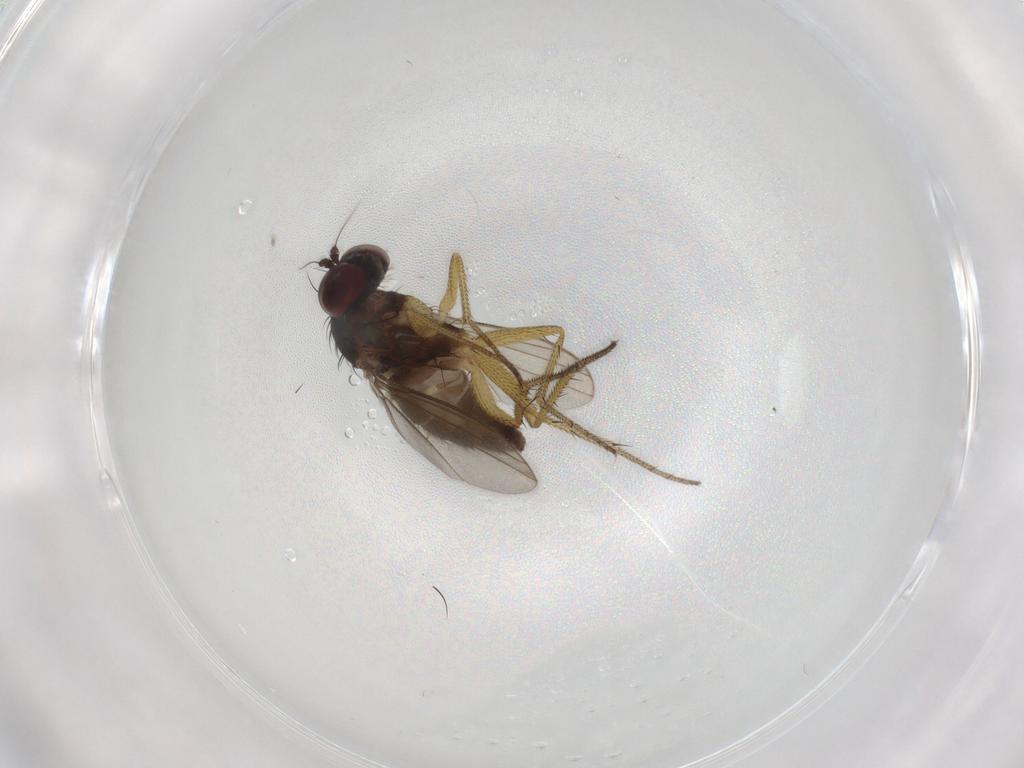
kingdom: Animalia
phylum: Arthropoda
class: Insecta
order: Diptera
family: Dolichopodidae
